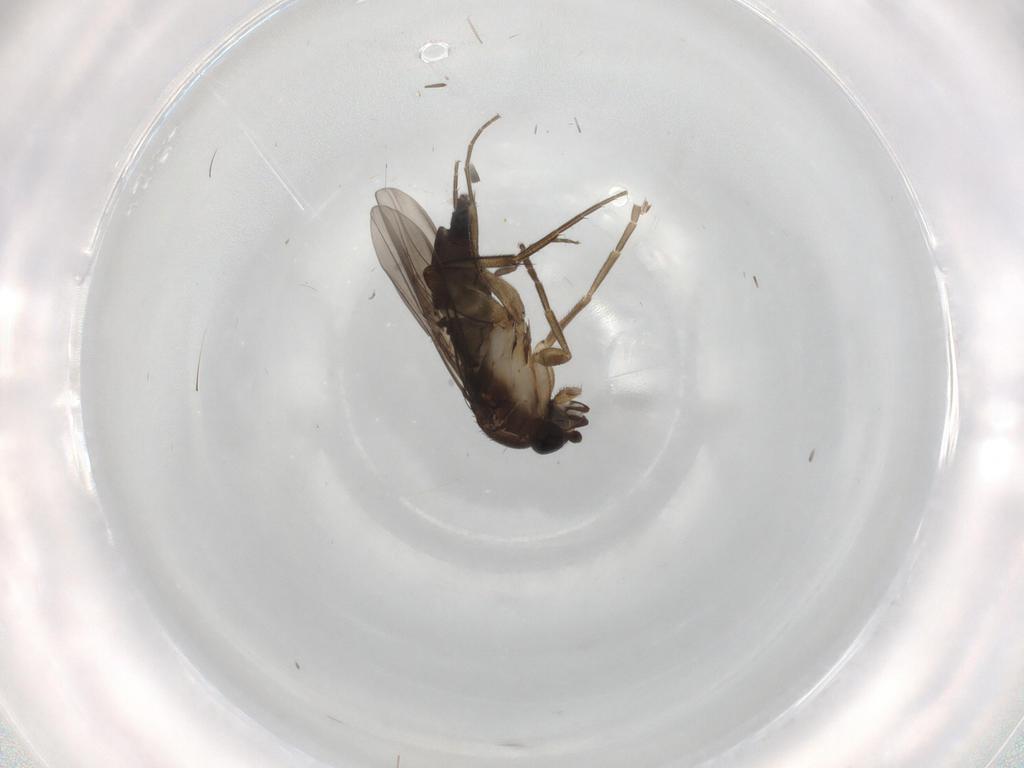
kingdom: Animalia
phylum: Arthropoda
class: Insecta
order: Diptera
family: Phoridae
